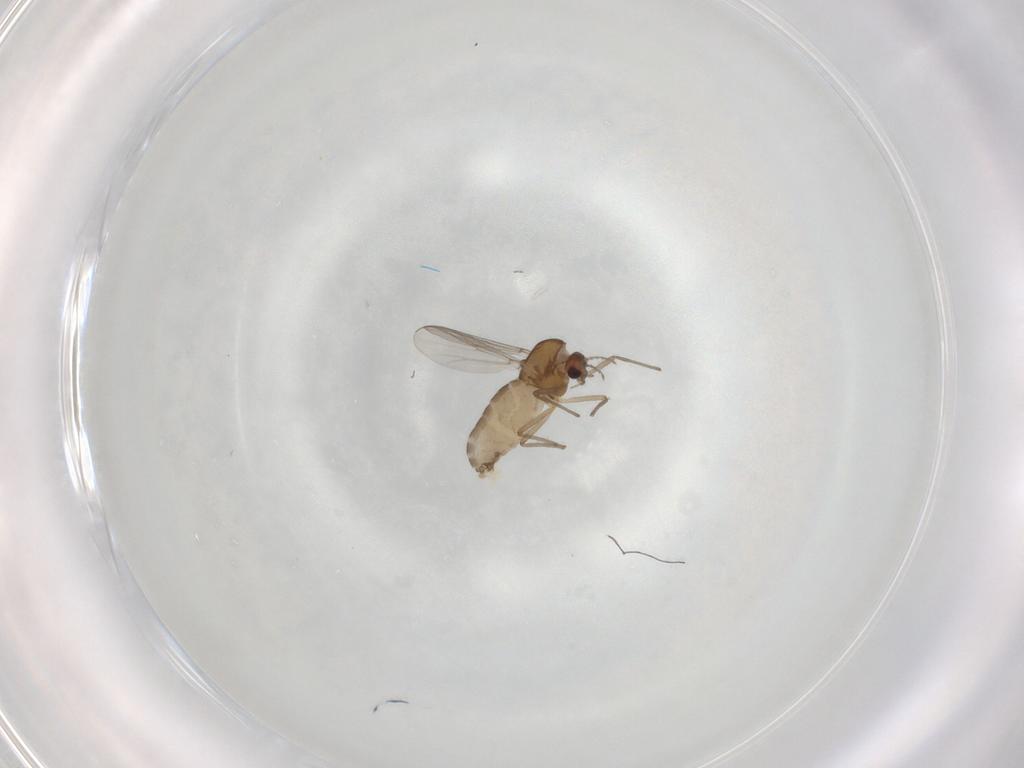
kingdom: Animalia
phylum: Arthropoda
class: Insecta
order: Diptera
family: Chironomidae
